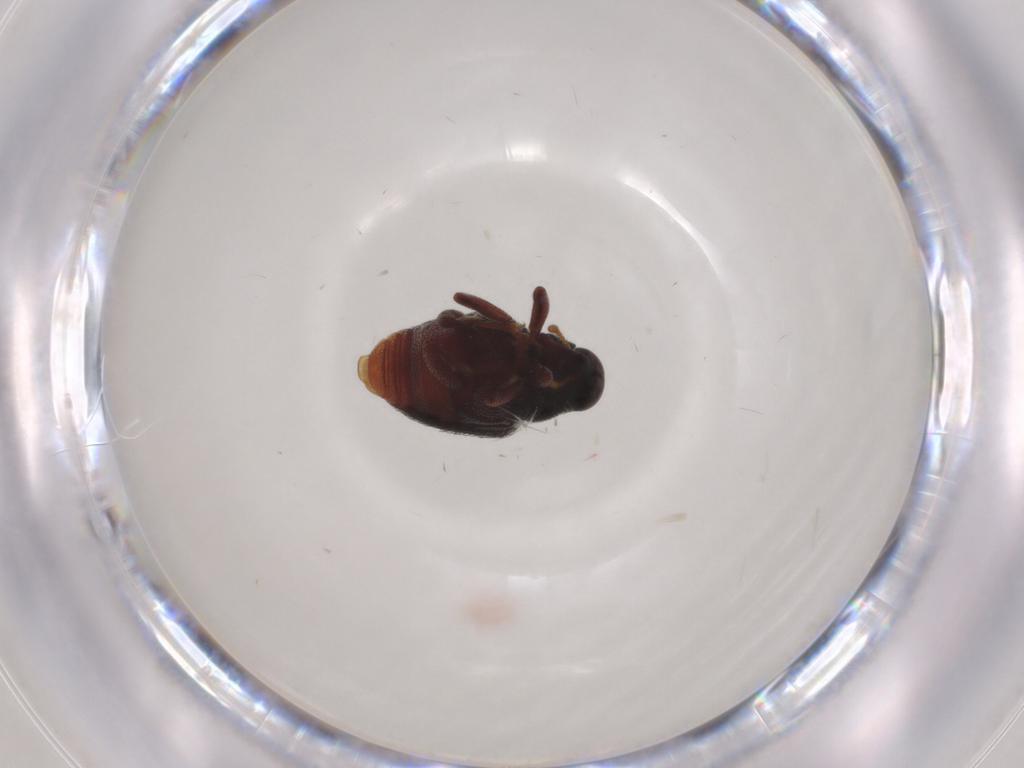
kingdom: Animalia
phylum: Arthropoda
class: Insecta
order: Coleoptera
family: Curculionidae
